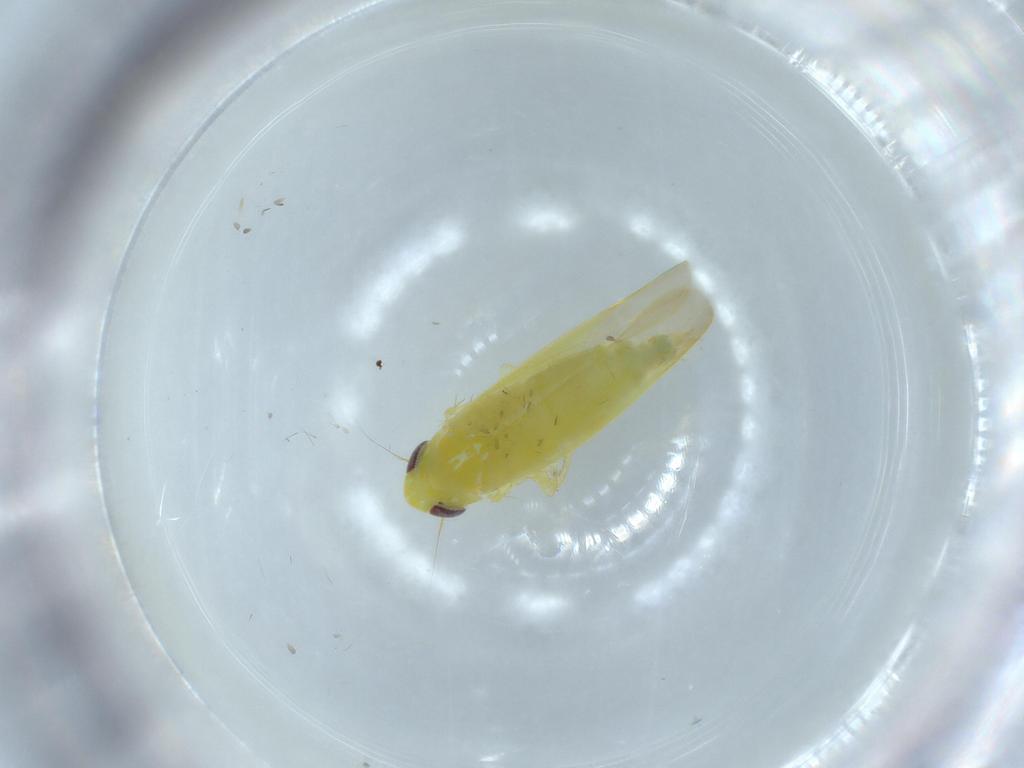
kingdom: Animalia
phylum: Arthropoda
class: Insecta
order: Hemiptera
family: Cicadellidae
